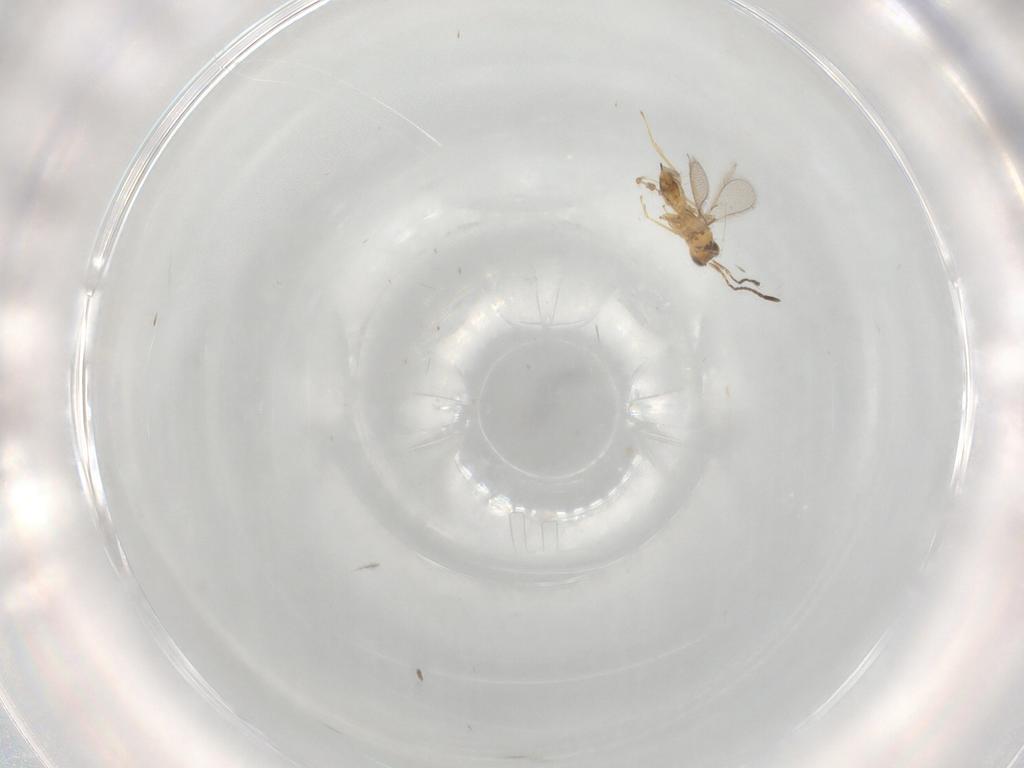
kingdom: Animalia
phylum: Arthropoda
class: Insecta
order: Hymenoptera
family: Mymaridae
